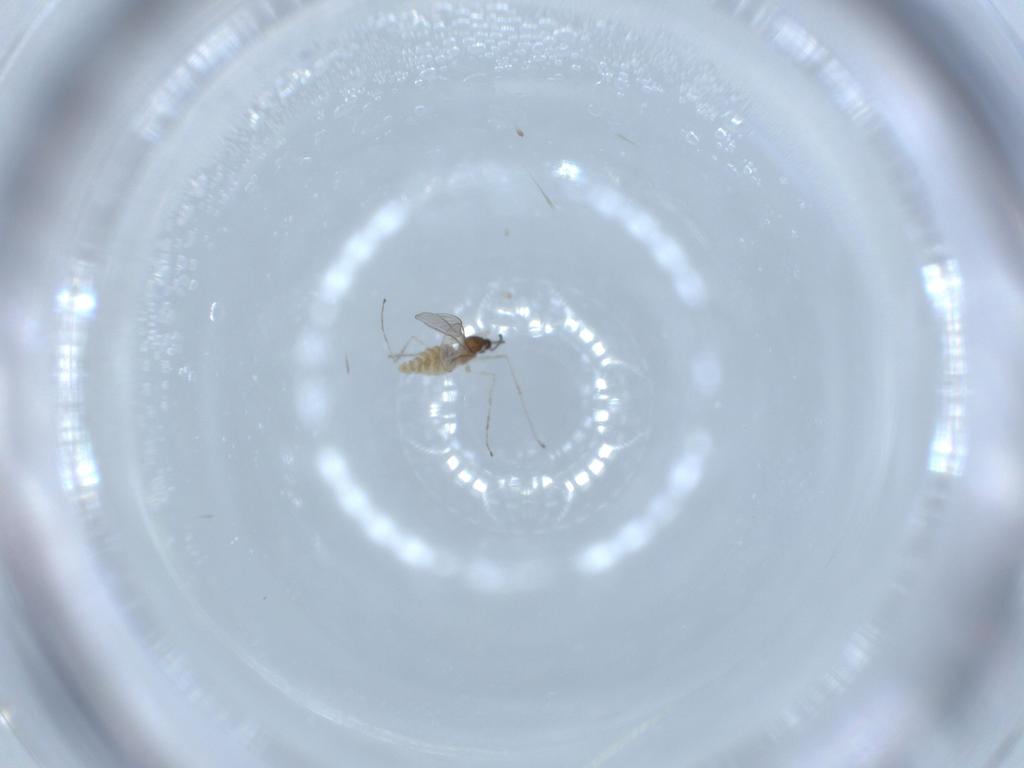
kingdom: Animalia
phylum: Arthropoda
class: Insecta
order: Diptera
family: Cecidomyiidae
